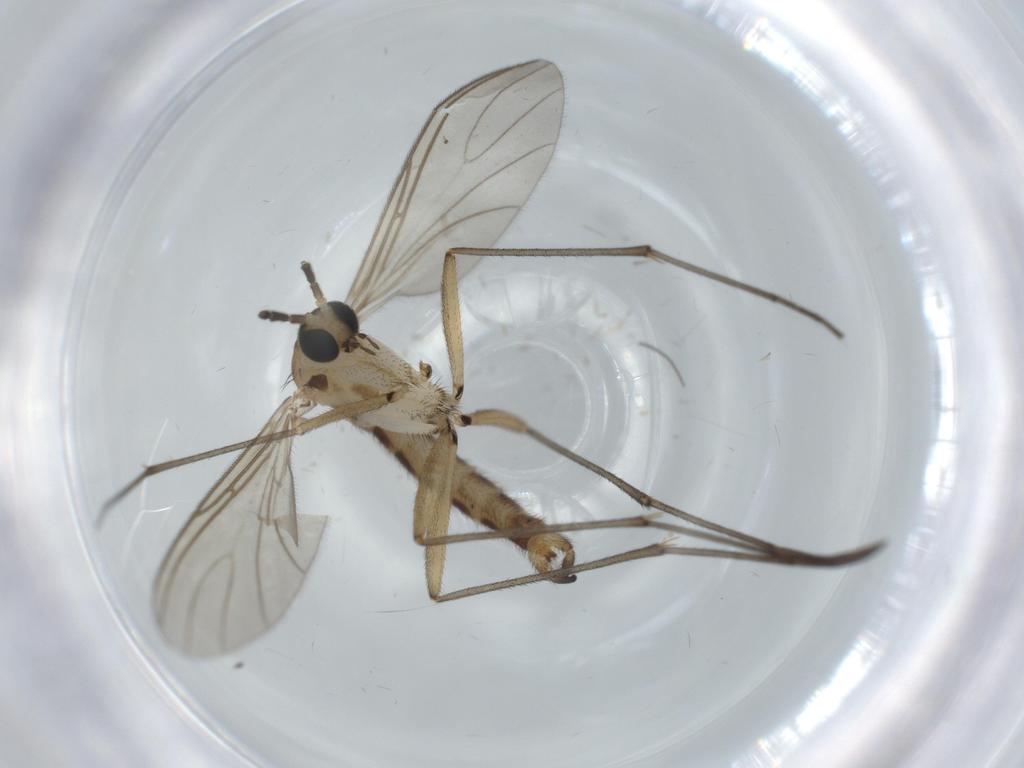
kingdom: Animalia
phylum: Arthropoda
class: Insecta
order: Diptera
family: Sciaridae
